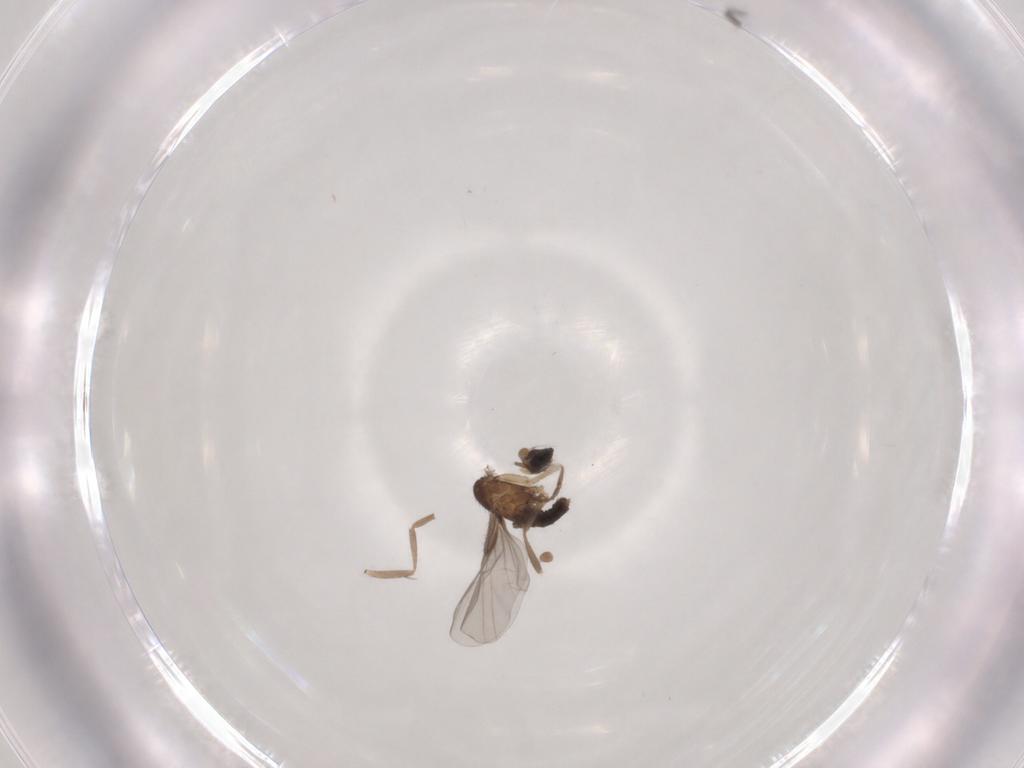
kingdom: Animalia
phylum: Arthropoda
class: Insecta
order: Diptera
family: Phoridae
